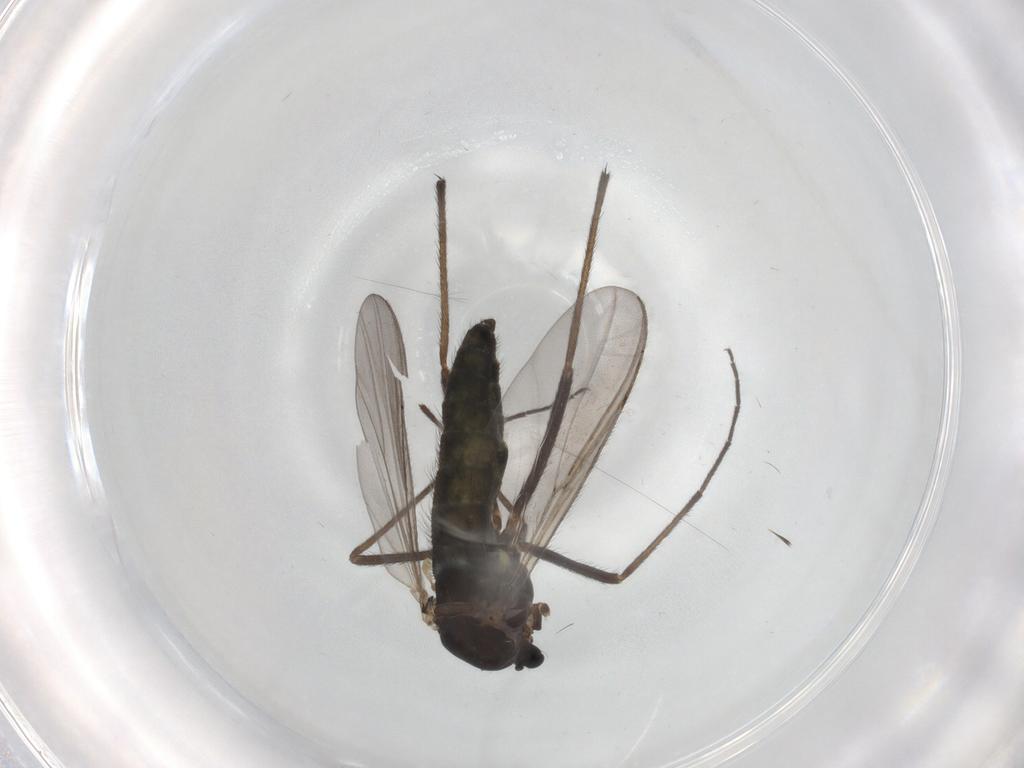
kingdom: Animalia
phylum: Arthropoda
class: Insecta
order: Diptera
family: Chironomidae
